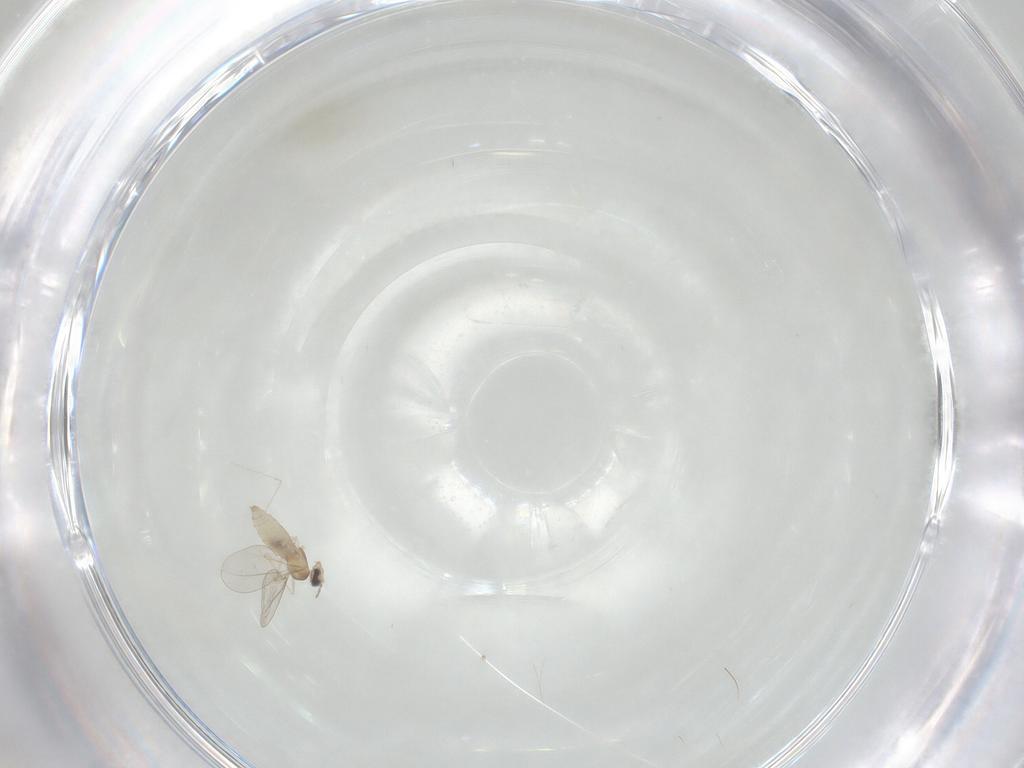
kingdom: Animalia
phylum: Arthropoda
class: Insecta
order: Diptera
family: Cecidomyiidae
